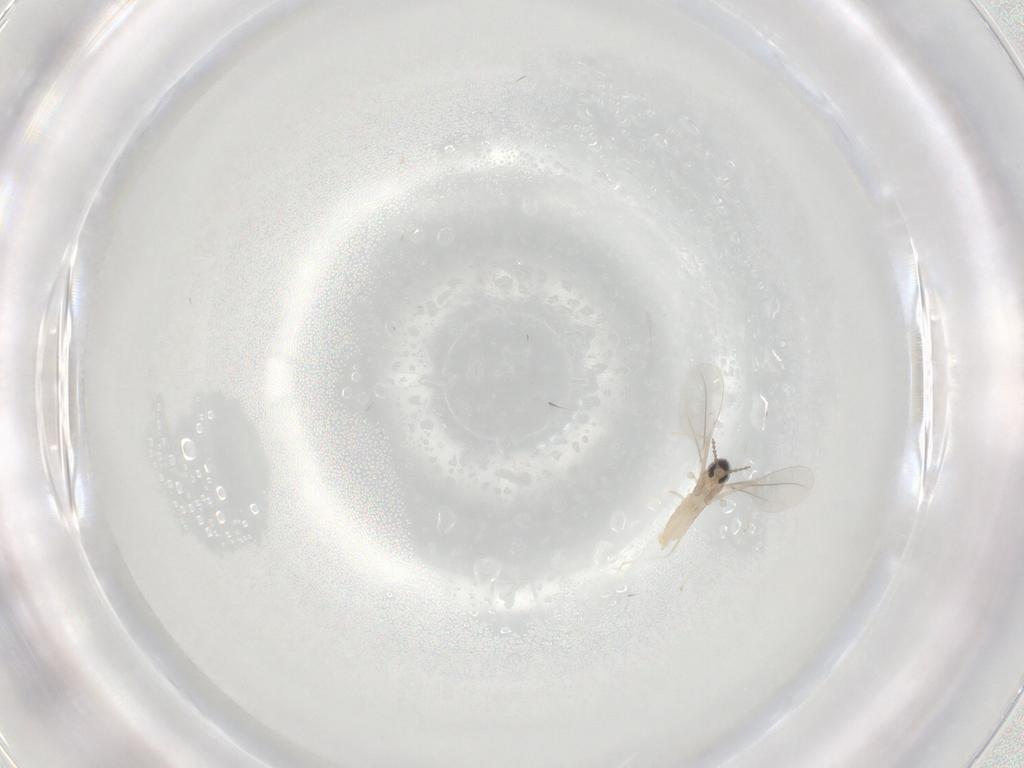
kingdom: Animalia
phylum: Arthropoda
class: Insecta
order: Diptera
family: Cecidomyiidae
